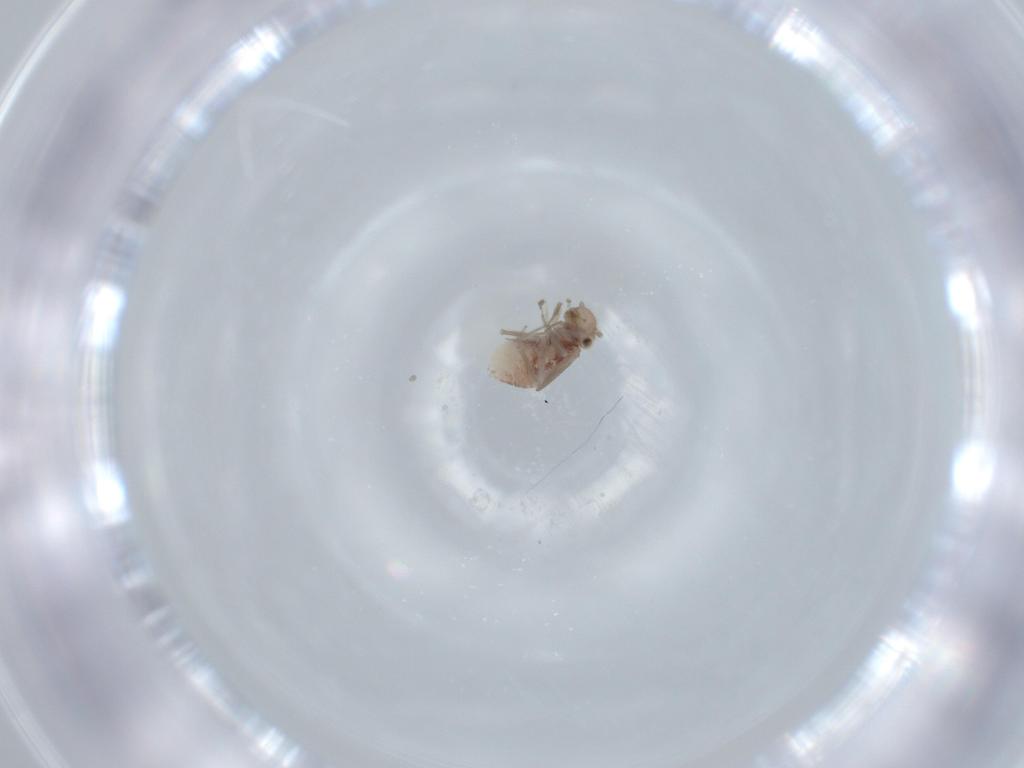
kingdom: Animalia
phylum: Arthropoda
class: Insecta
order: Psocodea
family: Ectopsocidae
